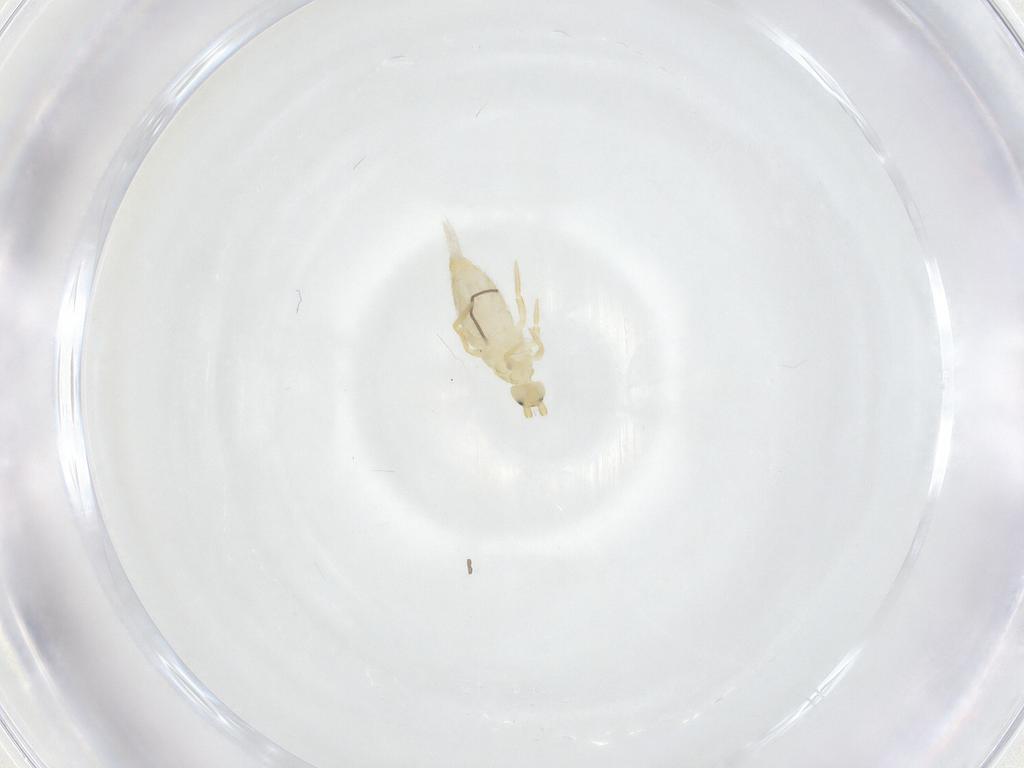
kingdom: Animalia
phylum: Arthropoda
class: Collembola
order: Entomobryomorpha
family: Entomobryidae
